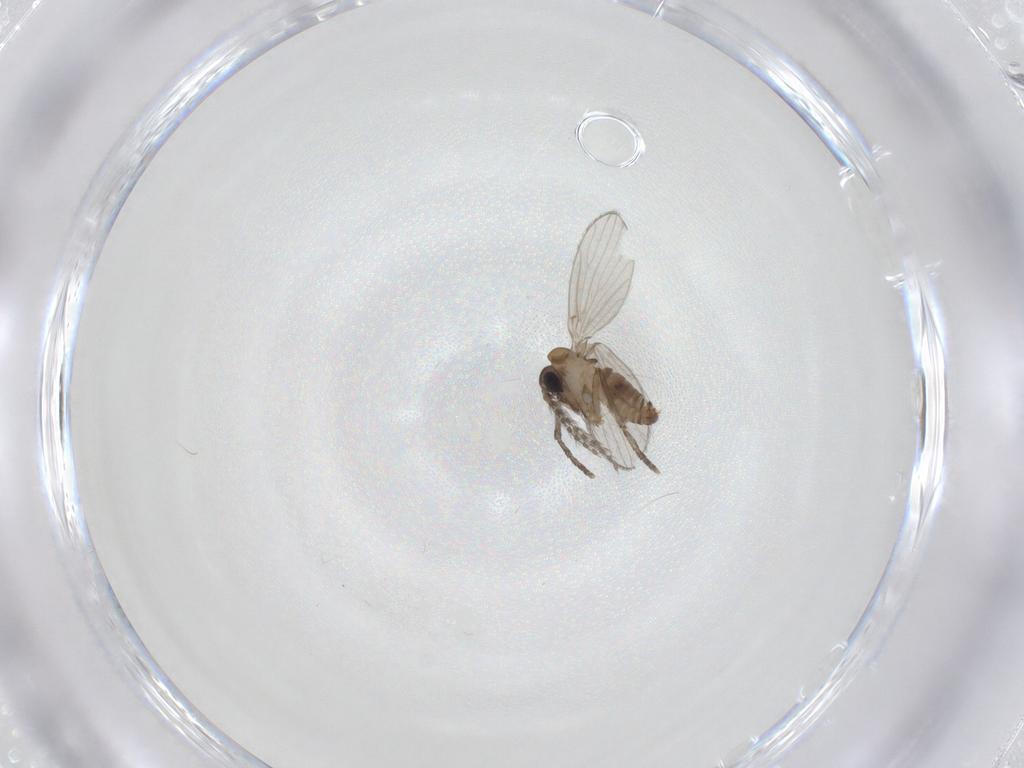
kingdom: Animalia
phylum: Arthropoda
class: Insecta
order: Diptera
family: Psychodidae
